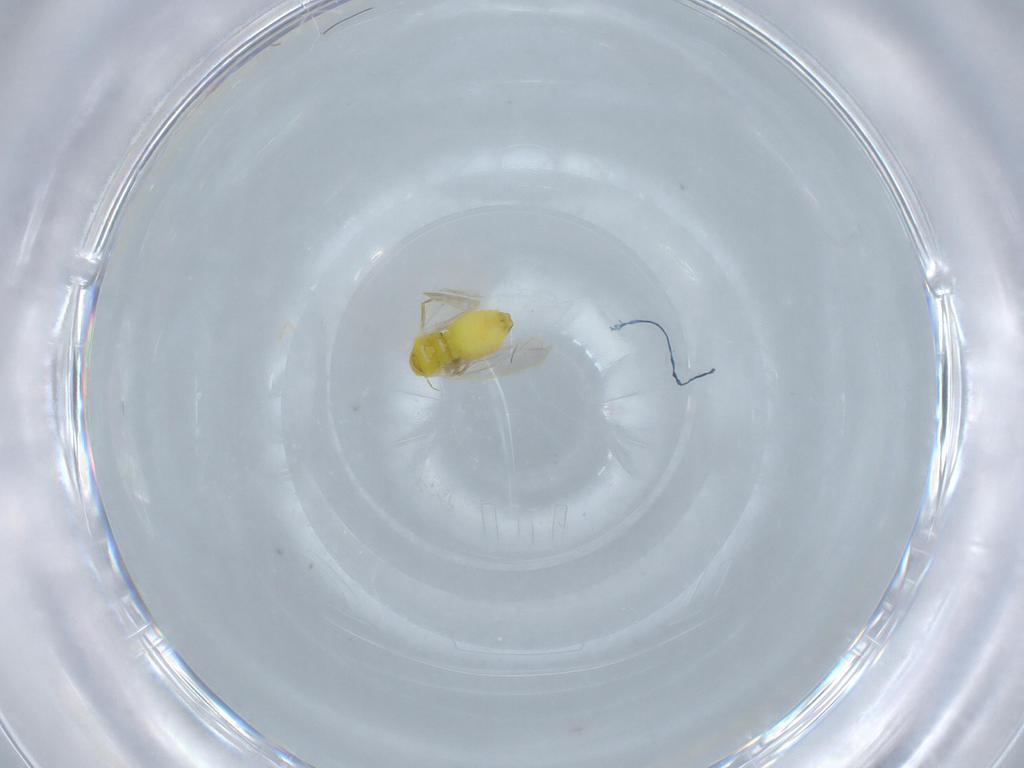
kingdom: Animalia
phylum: Arthropoda
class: Insecta
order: Hemiptera
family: Aleyrodidae
